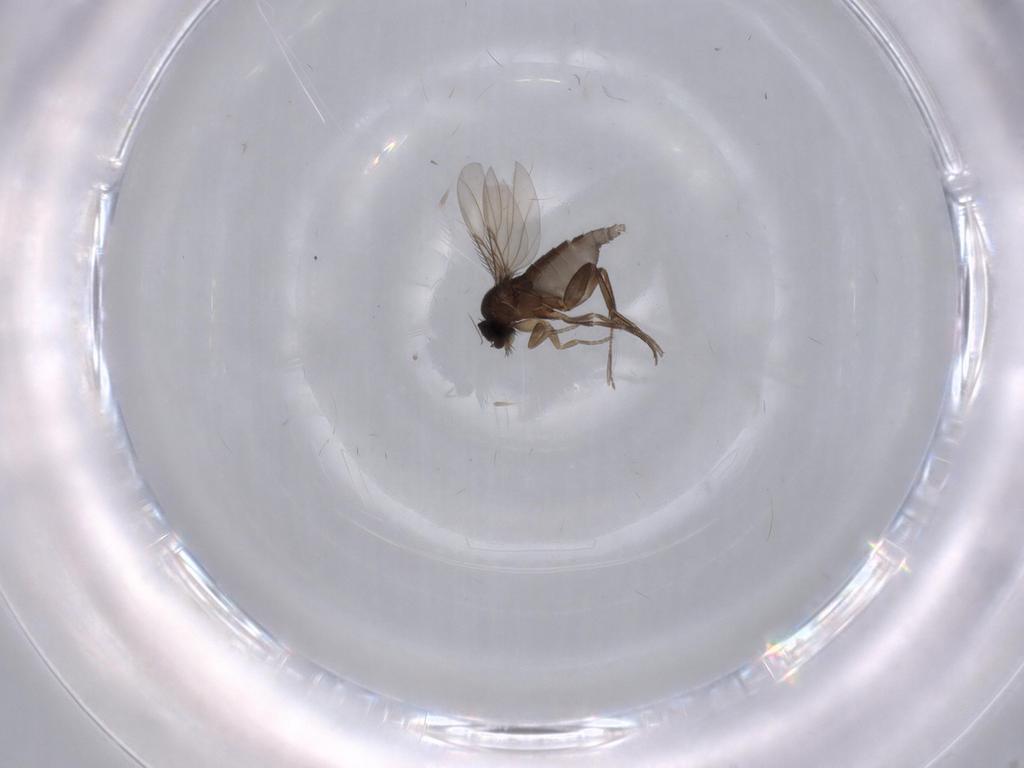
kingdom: Animalia
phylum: Arthropoda
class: Insecta
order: Diptera
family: Phoridae
